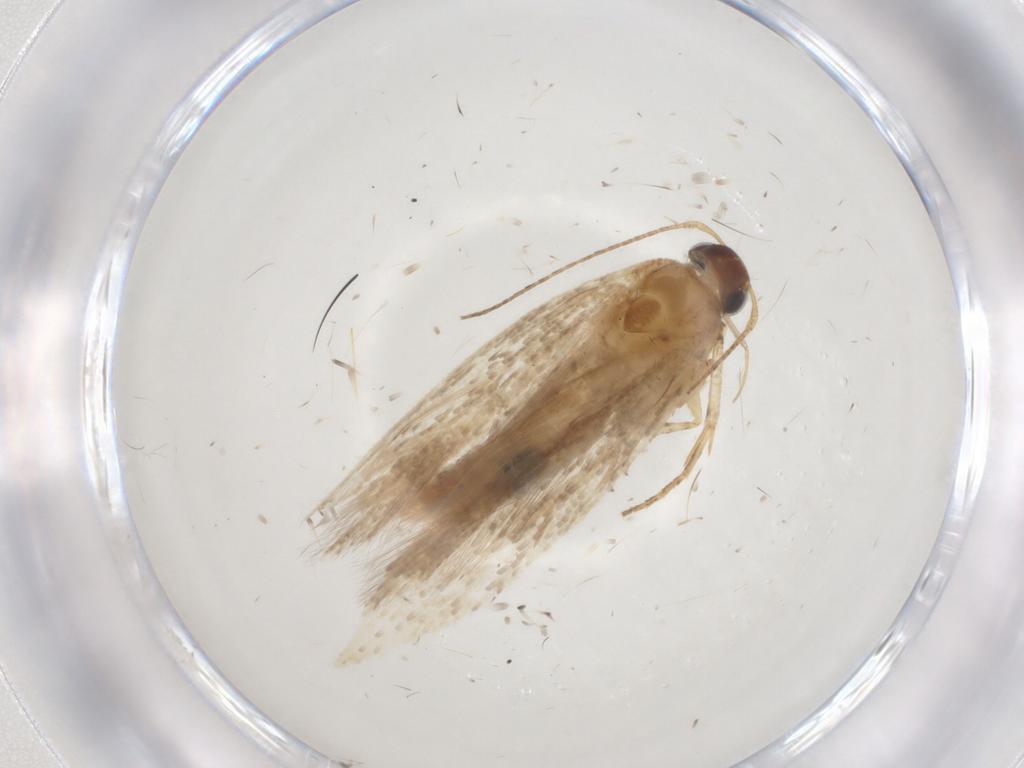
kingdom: Animalia
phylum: Arthropoda
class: Insecta
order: Lepidoptera
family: Gelechiidae
